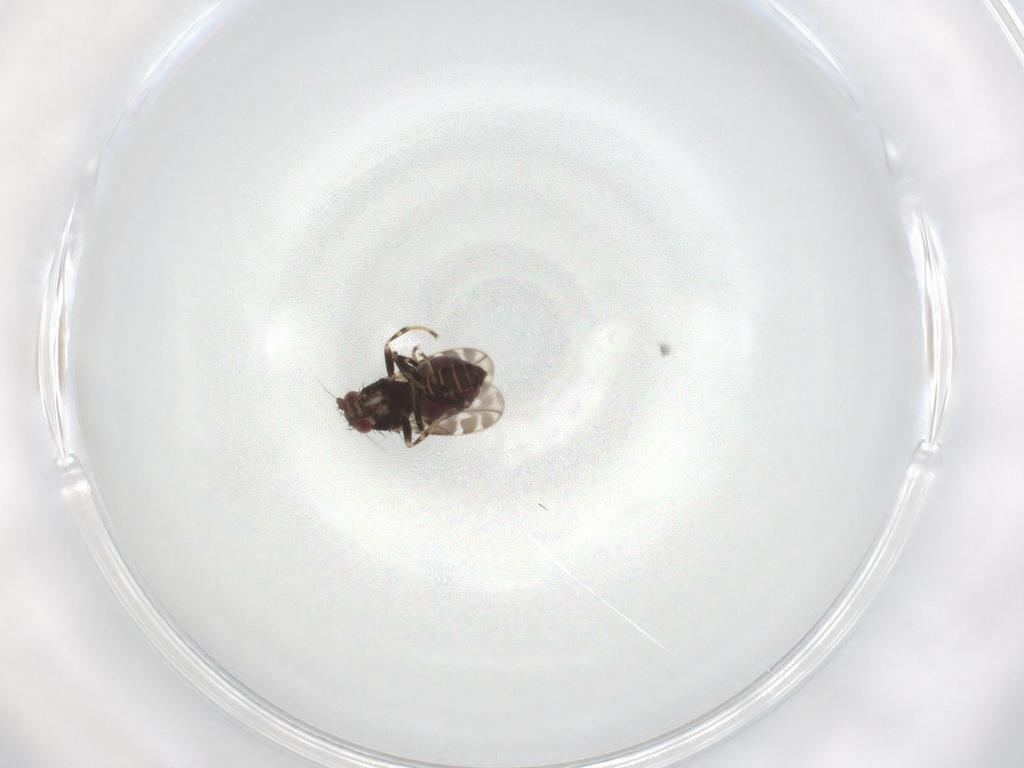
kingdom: Animalia
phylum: Arthropoda
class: Insecta
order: Diptera
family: Sphaeroceridae
